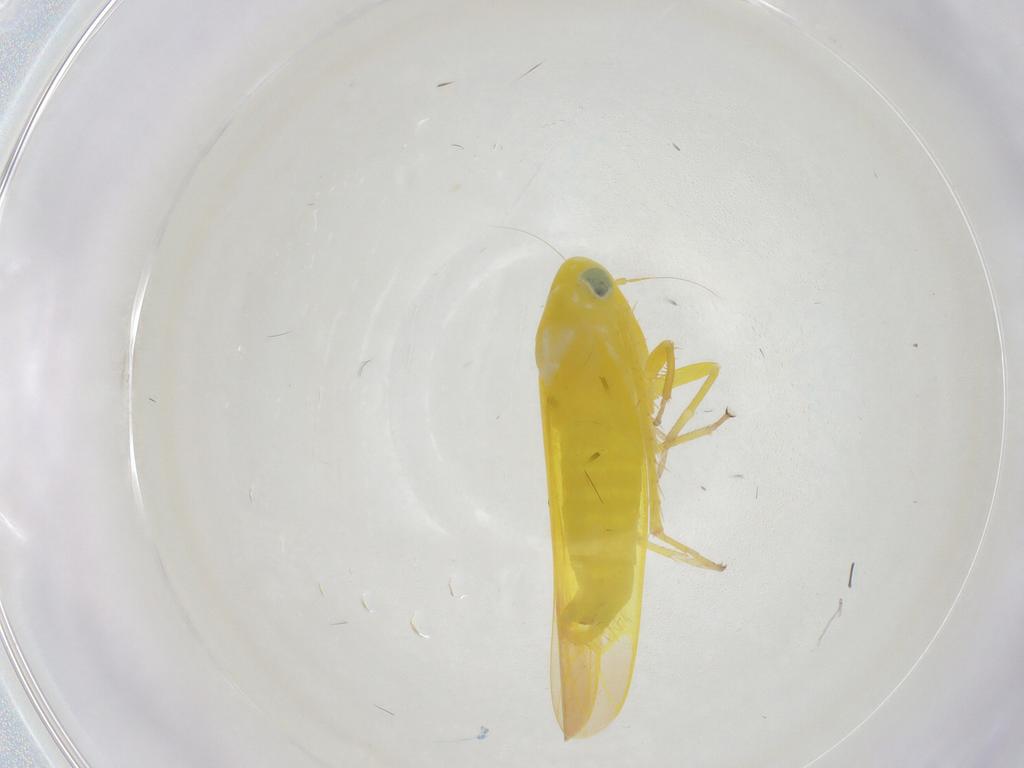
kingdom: Animalia
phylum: Arthropoda
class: Insecta
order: Hemiptera
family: Cicadellidae
